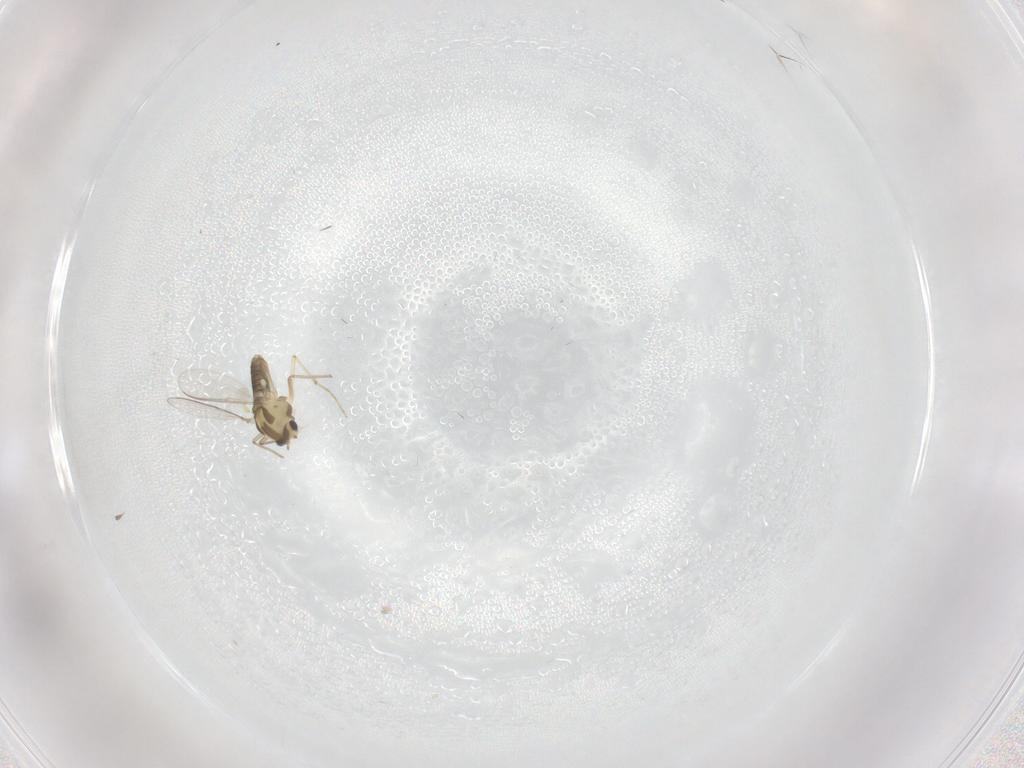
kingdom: Animalia
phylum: Arthropoda
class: Insecta
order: Diptera
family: Chironomidae
